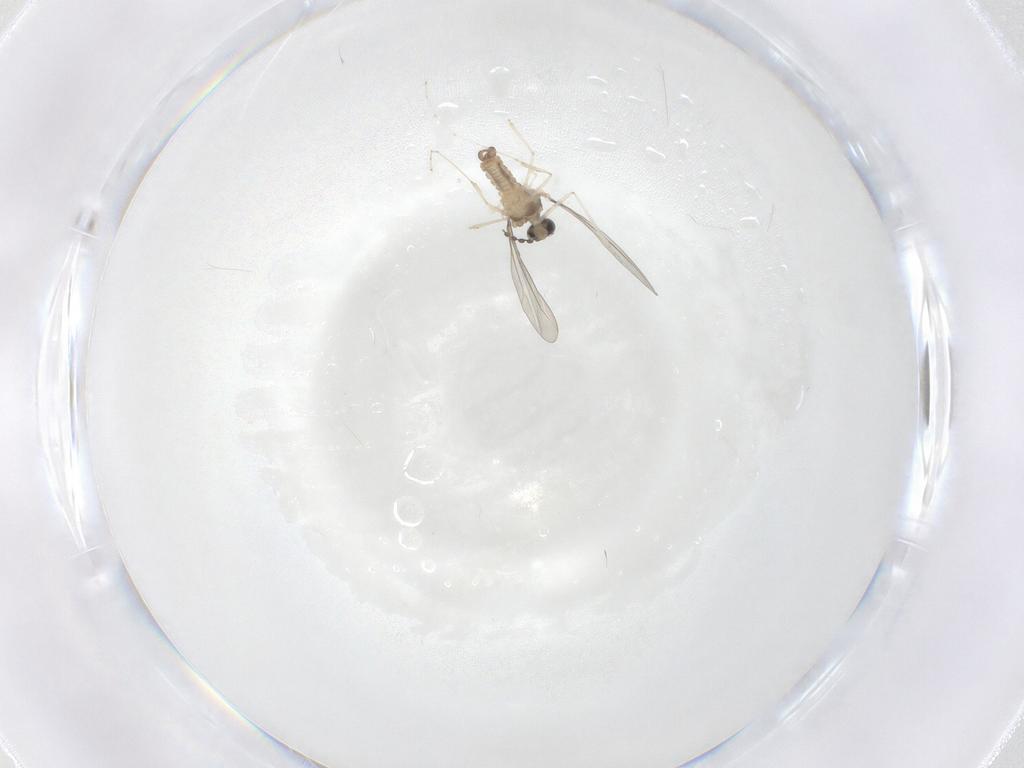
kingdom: Animalia
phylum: Arthropoda
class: Insecta
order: Diptera
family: Cecidomyiidae
